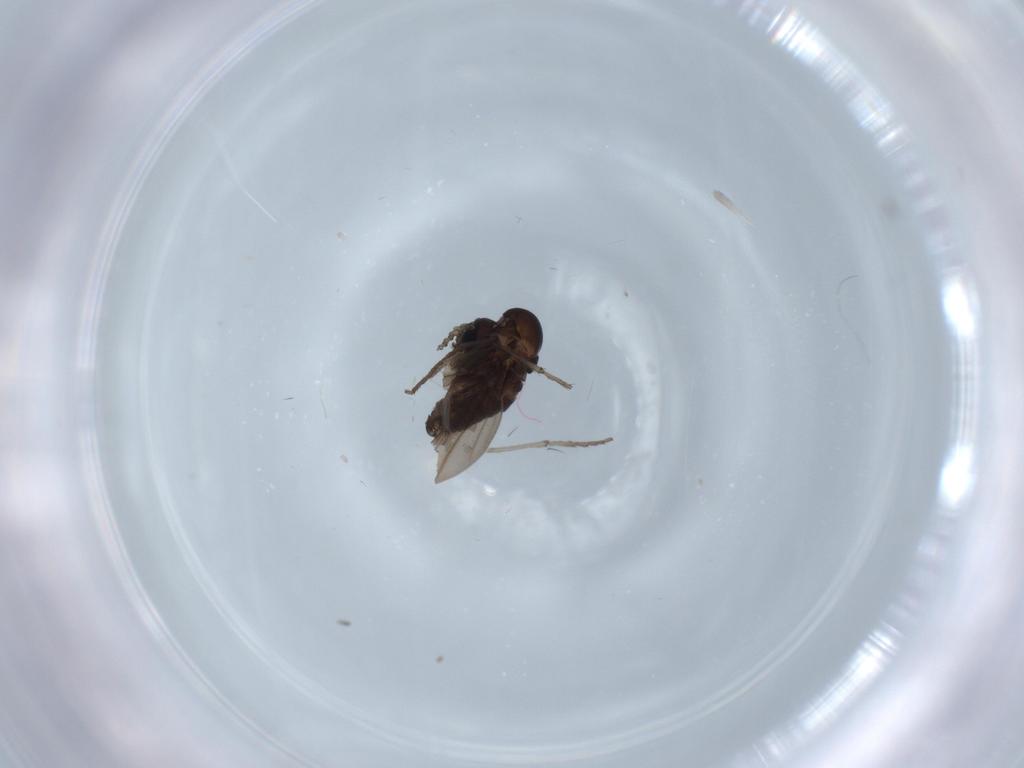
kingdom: Animalia
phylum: Arthropoda
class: Insecta
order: Diptera
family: Psychodidae
